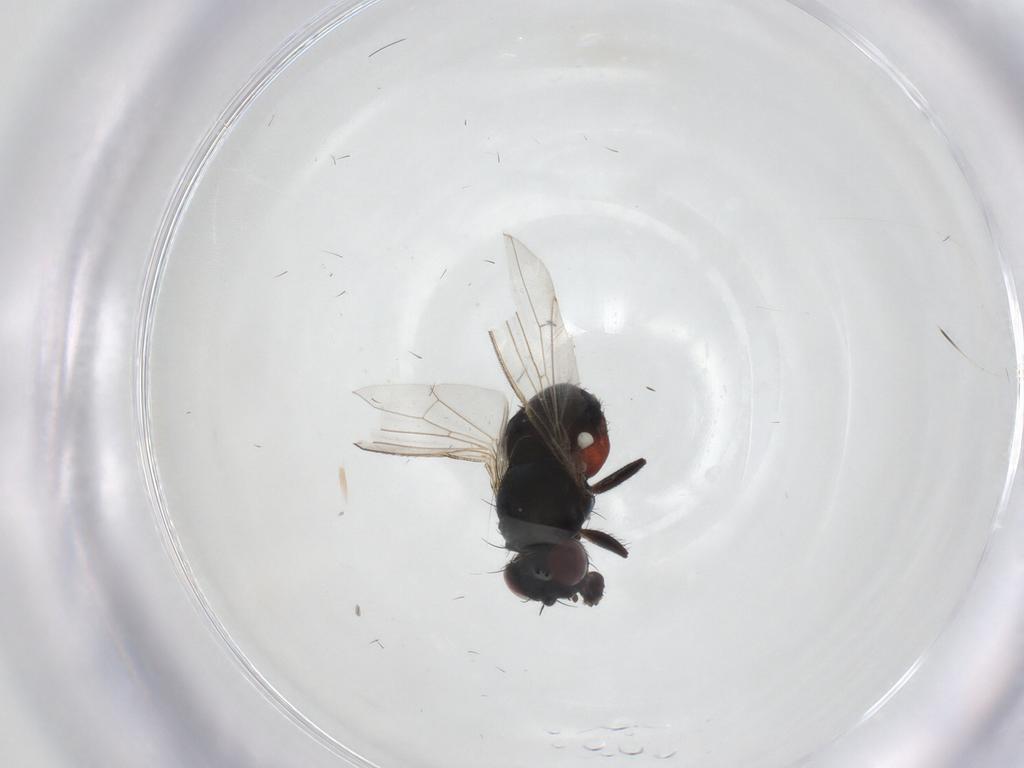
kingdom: Animalia
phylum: Arthropoda
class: Insecta
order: Diptera
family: Carnidae
